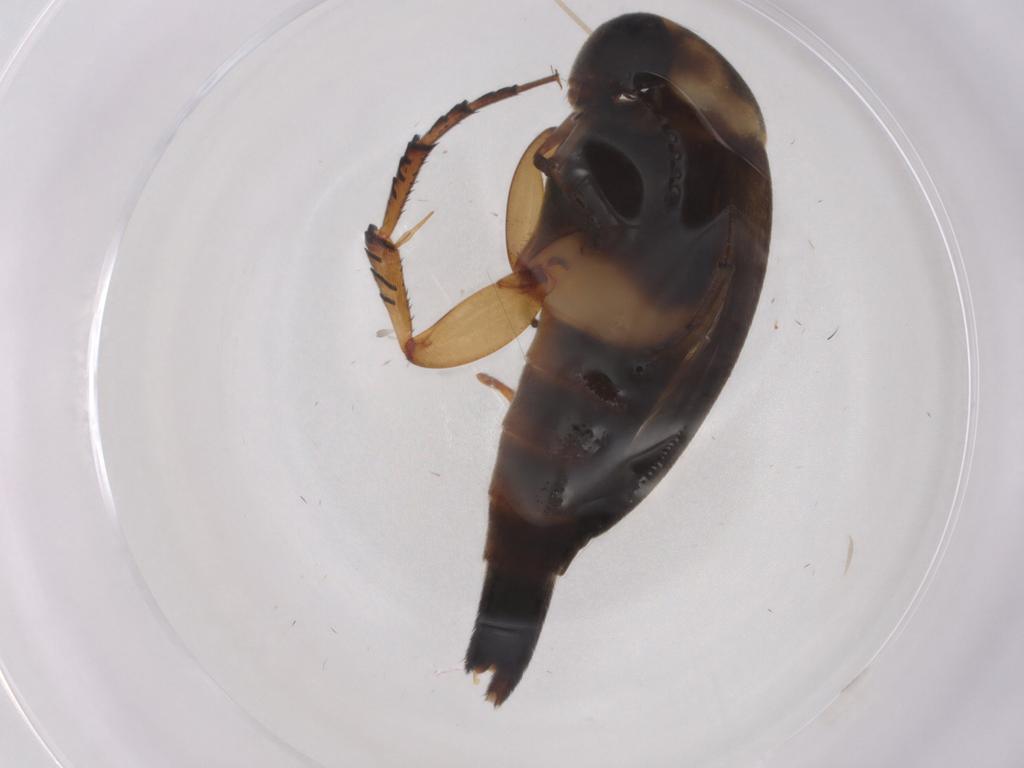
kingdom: Animalia
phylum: Arthropoda
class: Insecta
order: Coleoptera
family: Mordellidae
